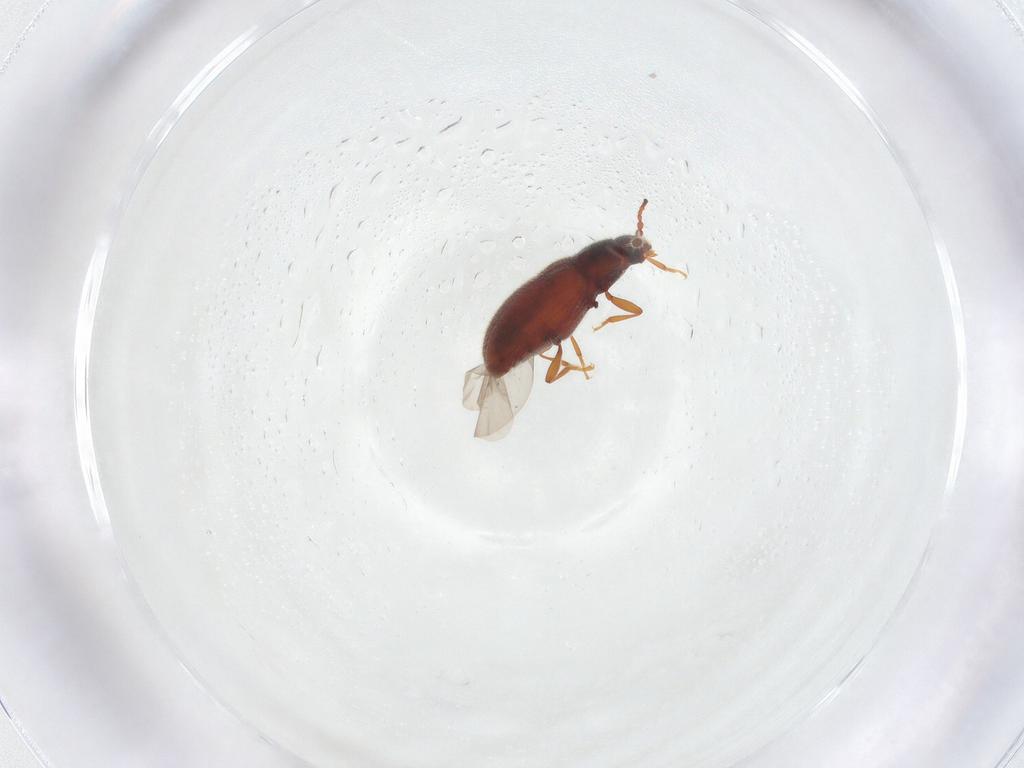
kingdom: Animalia
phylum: Arthropoda
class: Insecta
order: Coleoptera
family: Cryptophagidae
